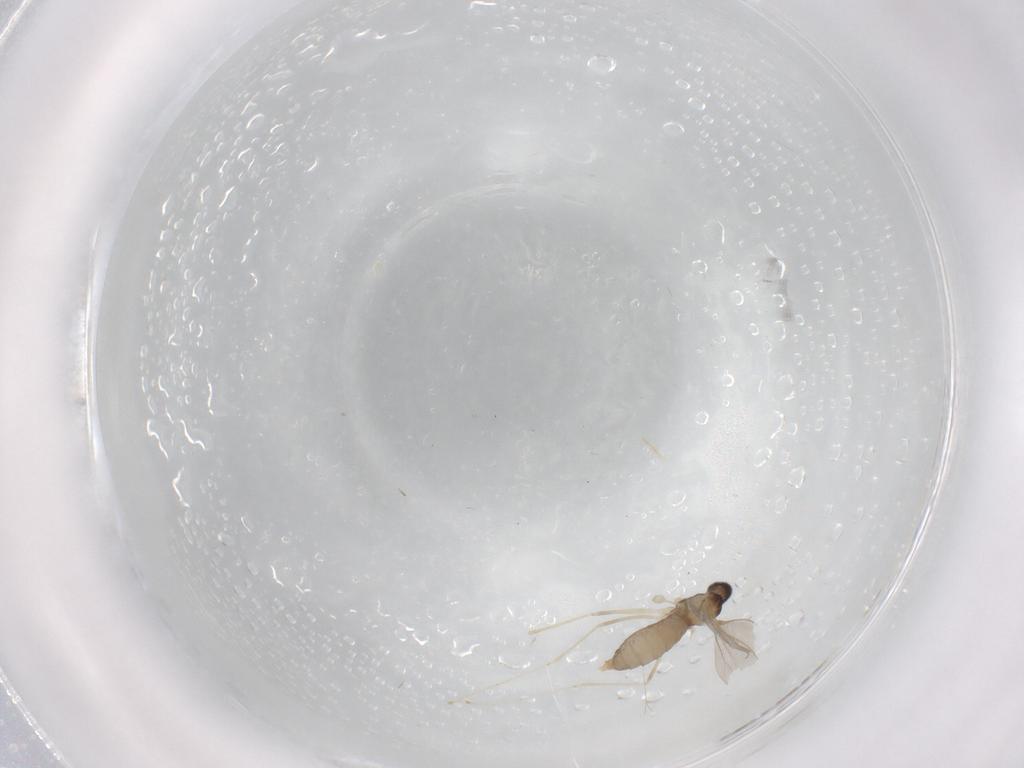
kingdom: Animalia
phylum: Arthropoda
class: Insecta
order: Diptera
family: Cecidomyiidae
